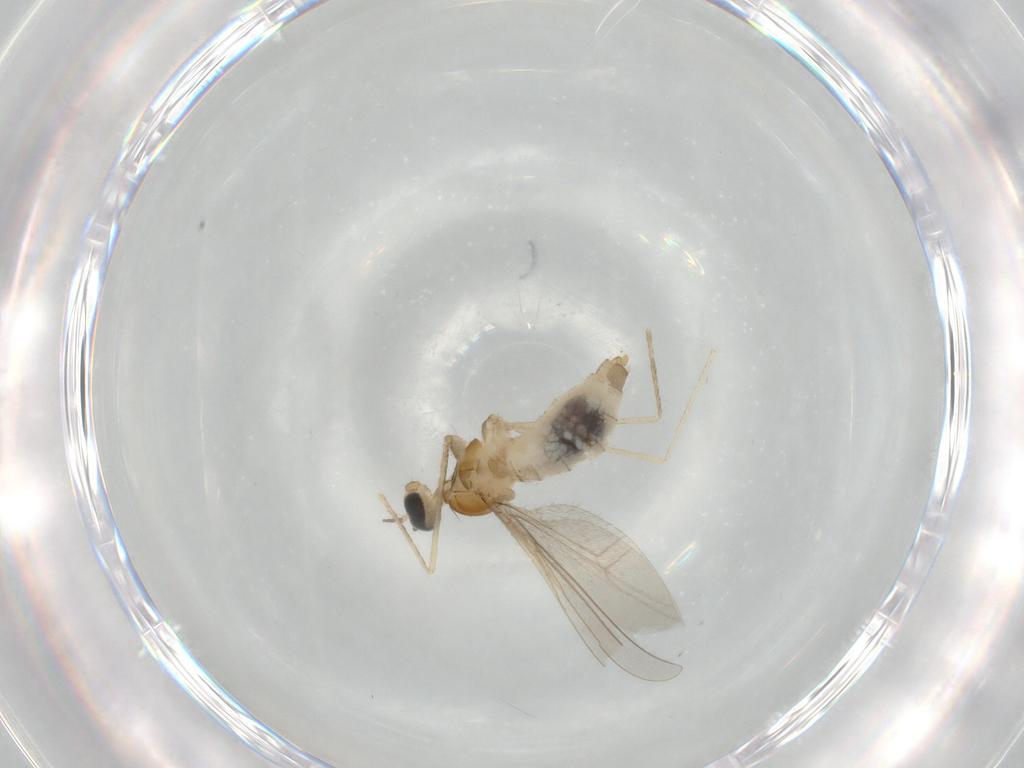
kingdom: Animalia
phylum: Arthropoda
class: Insecta
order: Diptera
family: Cecidomyiidae
